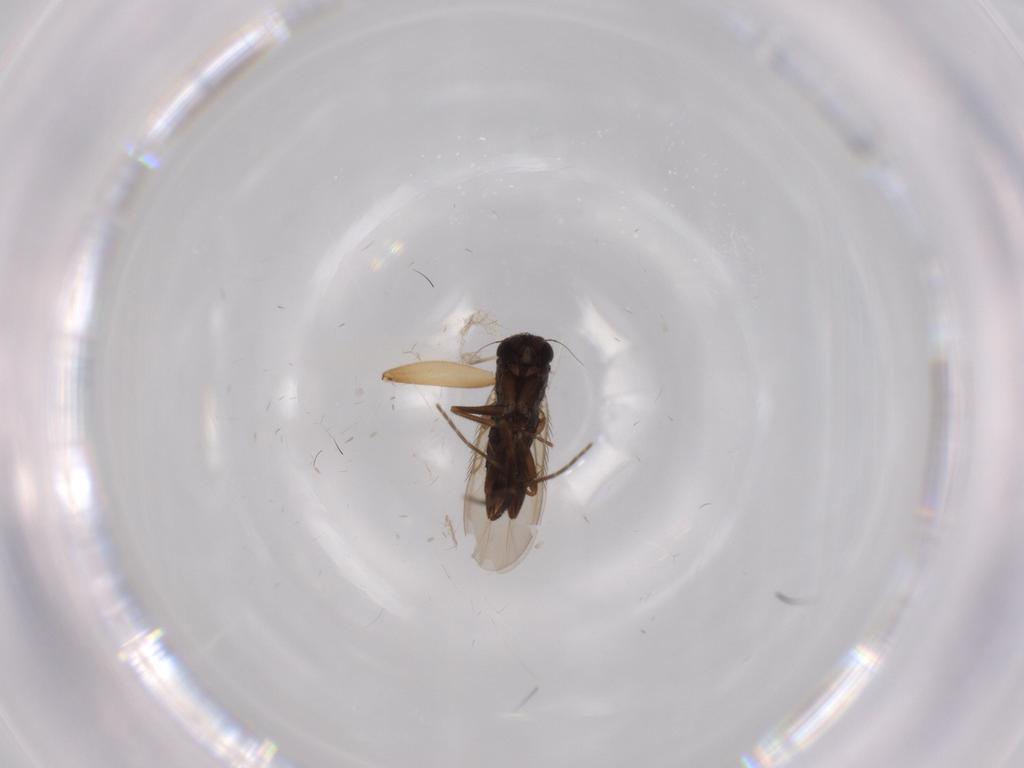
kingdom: Animalia
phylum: Arthropoda
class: Insecta
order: Diptera
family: Phoridae
